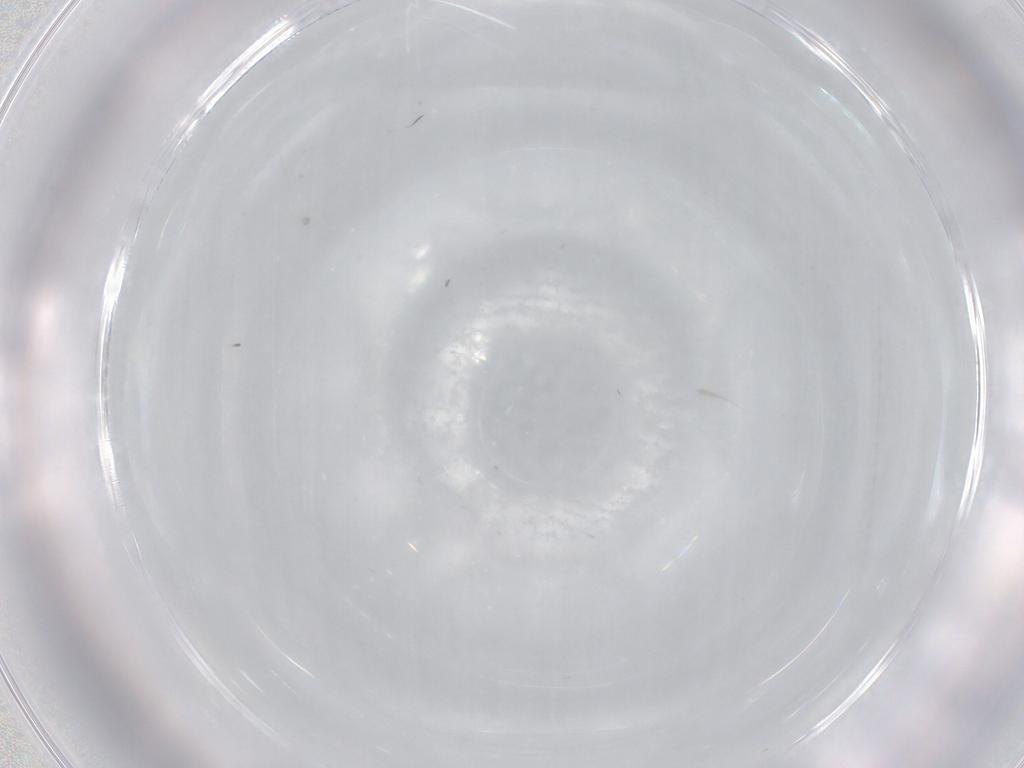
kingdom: Animalia
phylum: Arthropoda
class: Insecta
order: Diptera
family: Cecidomyiidae
